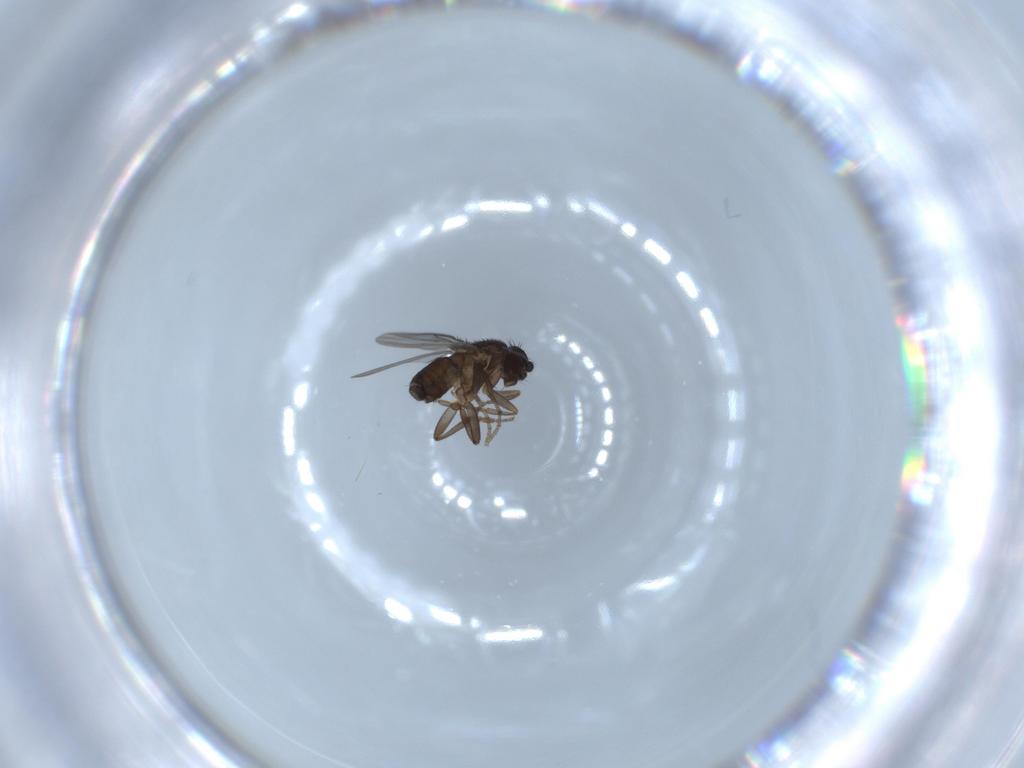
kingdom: Animalia
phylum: Arthropoda
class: Insecta
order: Diptera
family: Sphaeroceridae
